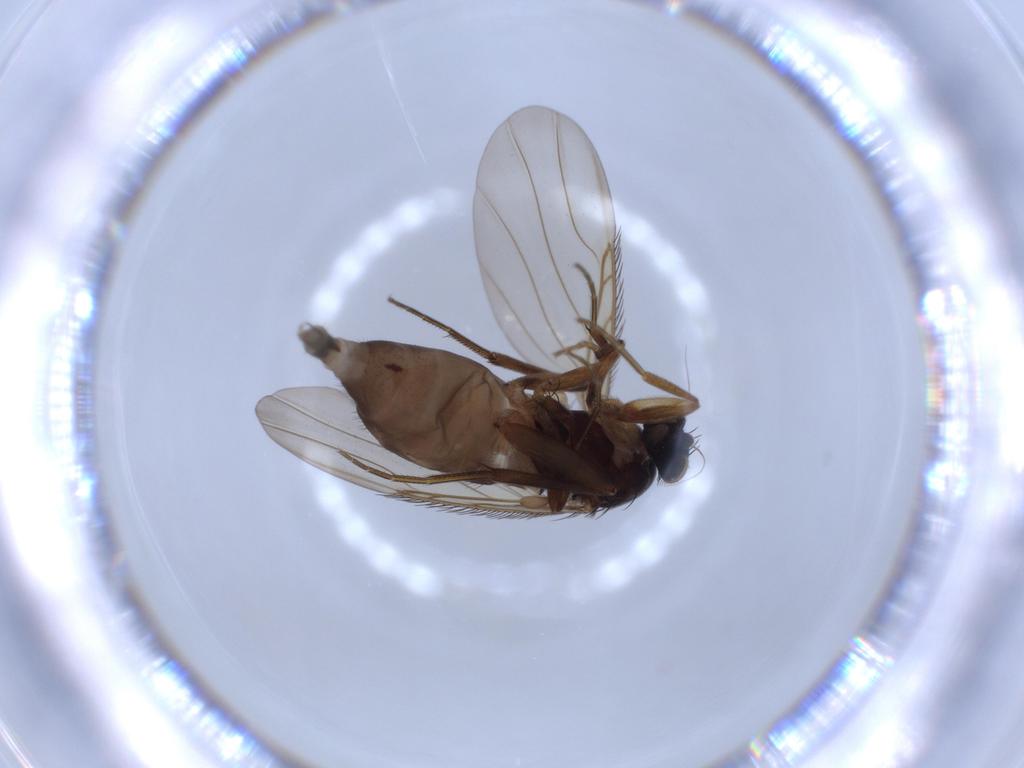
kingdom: Animalia
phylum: Arthropoda
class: Insecta
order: Diptera
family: Phoridae
